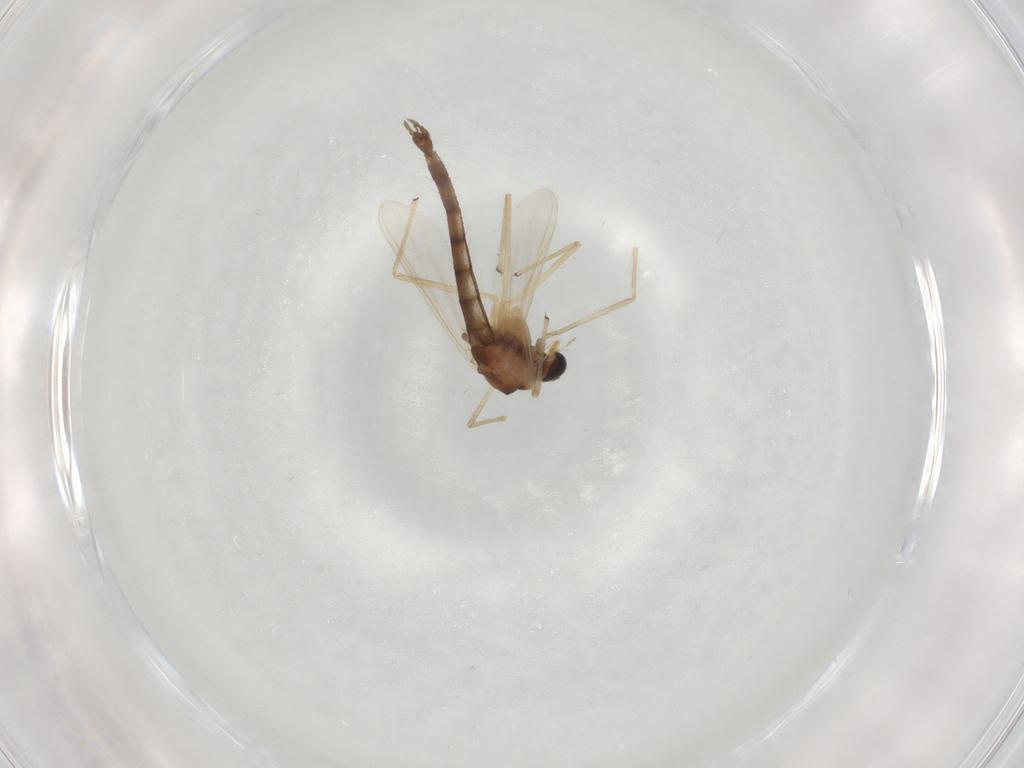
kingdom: Animalia
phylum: Arthropoda
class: Insecta
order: Diptera
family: Chironomidae
